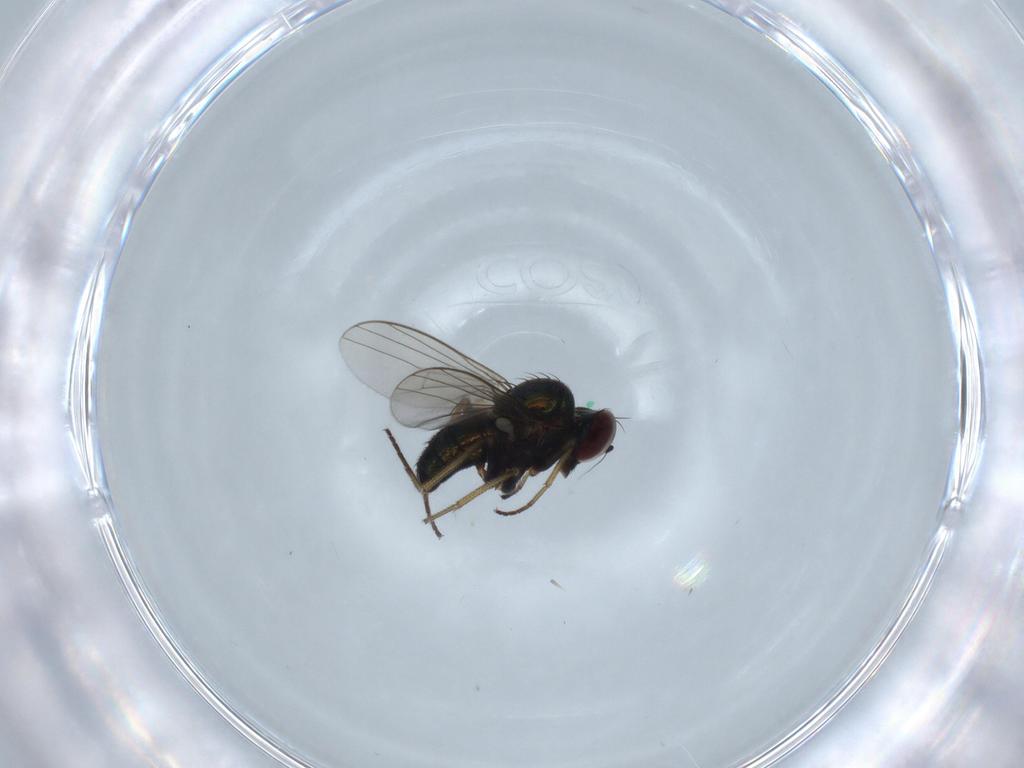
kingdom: Animalia
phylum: Arthropoda
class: Insecta
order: Diptera
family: Dolichopodidae
